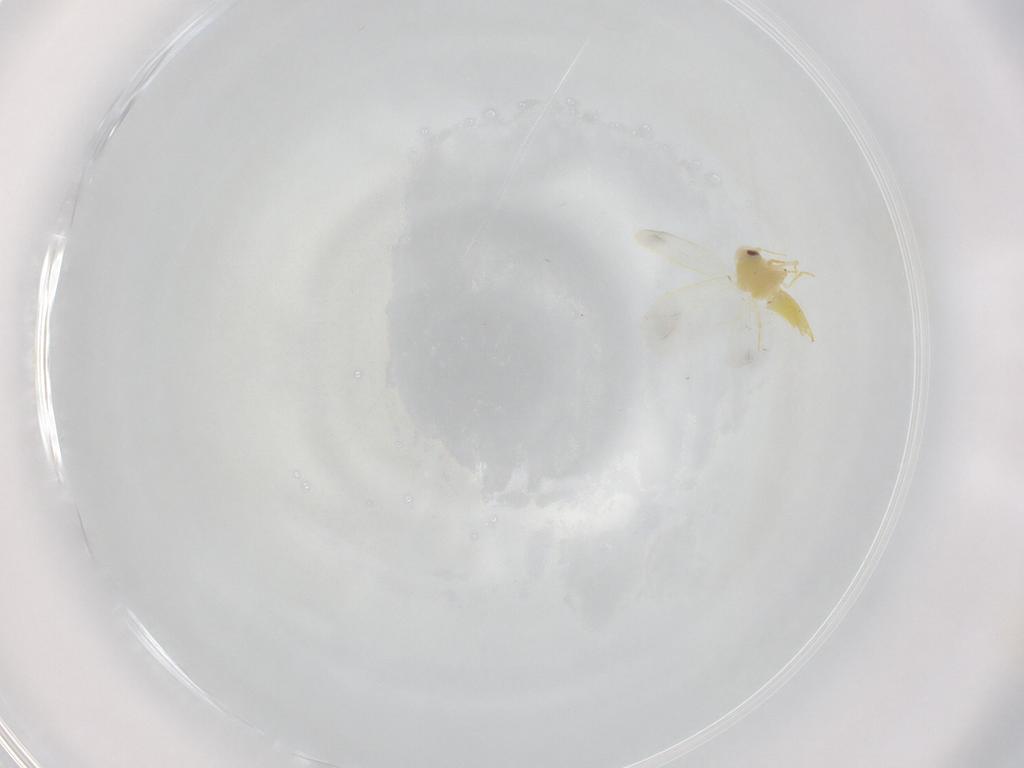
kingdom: Animalia
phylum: Arthropoda
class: Insecta
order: Hemiptera
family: Aleyrodidae
